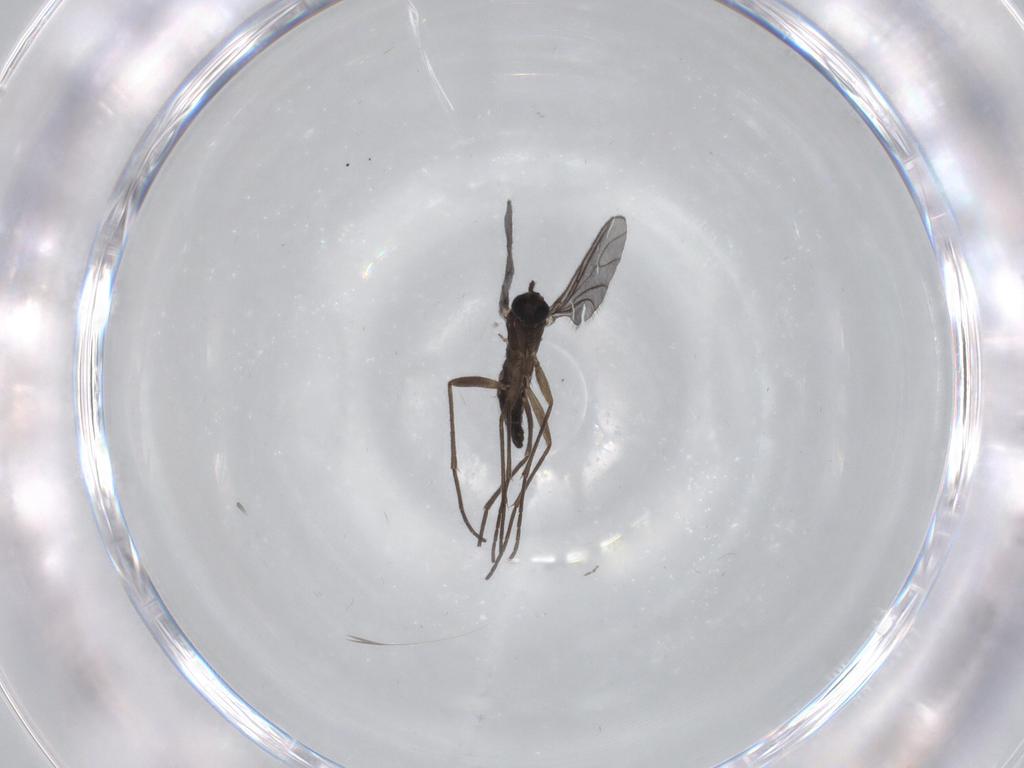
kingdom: Animalia
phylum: Arthropoda
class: Insecta
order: Diptera
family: Sciaridae
